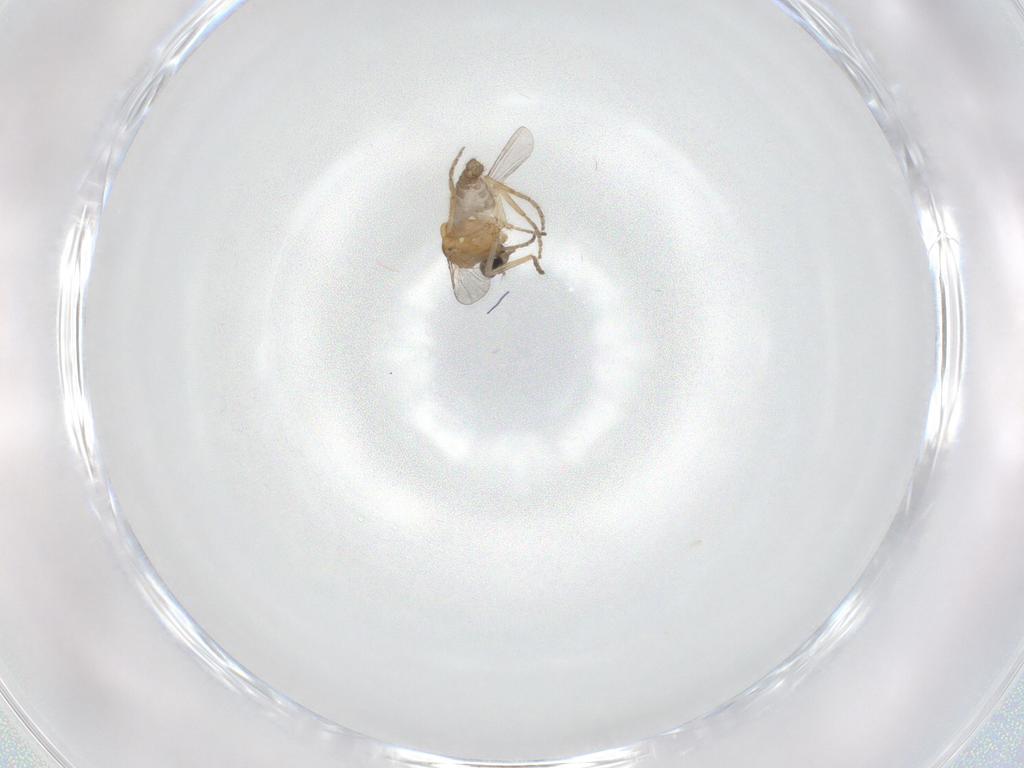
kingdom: Animalia
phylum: Arthropoda
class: Insecta
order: Diptera
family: Ceratopogonidae
